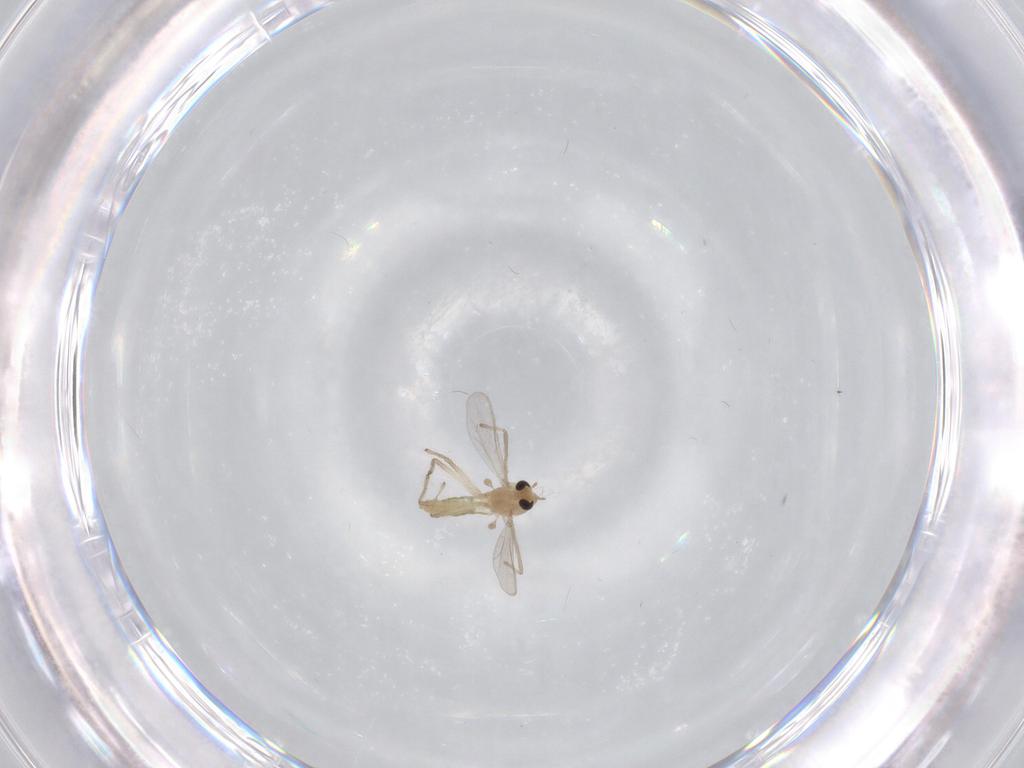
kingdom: Animalia
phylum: Arthropoda
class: Insecta
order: Diptera
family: Chironomidae
